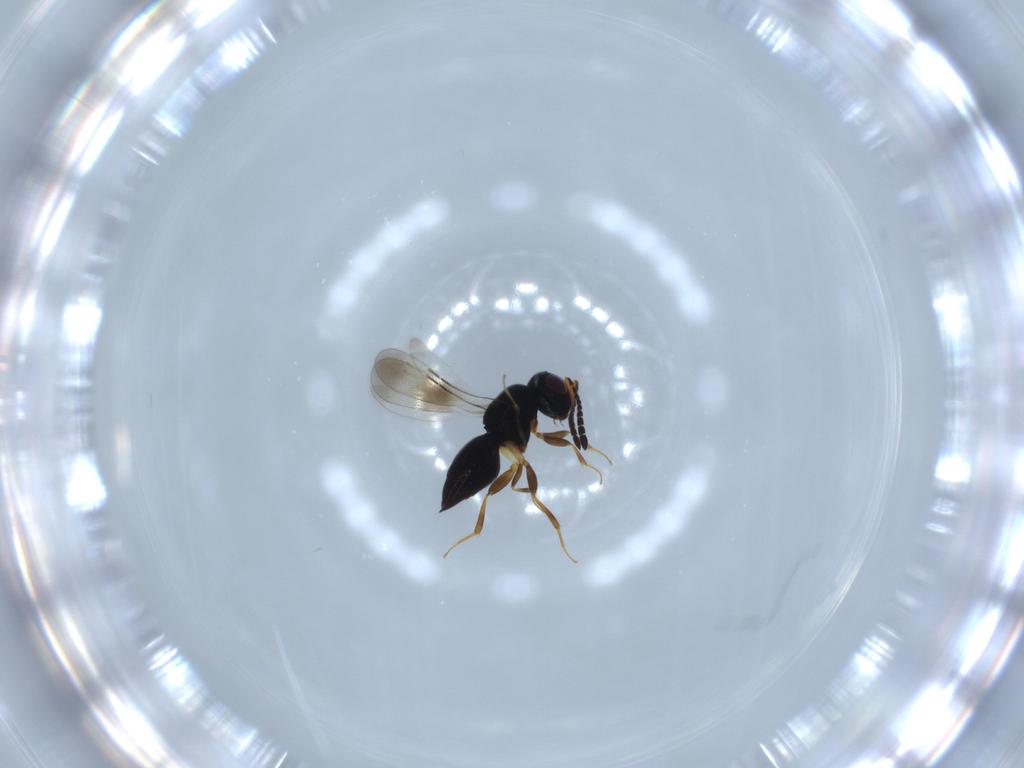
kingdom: Animalia
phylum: Arthropoda
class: Insecta
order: Hymenoptera
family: Ceraphronidae
